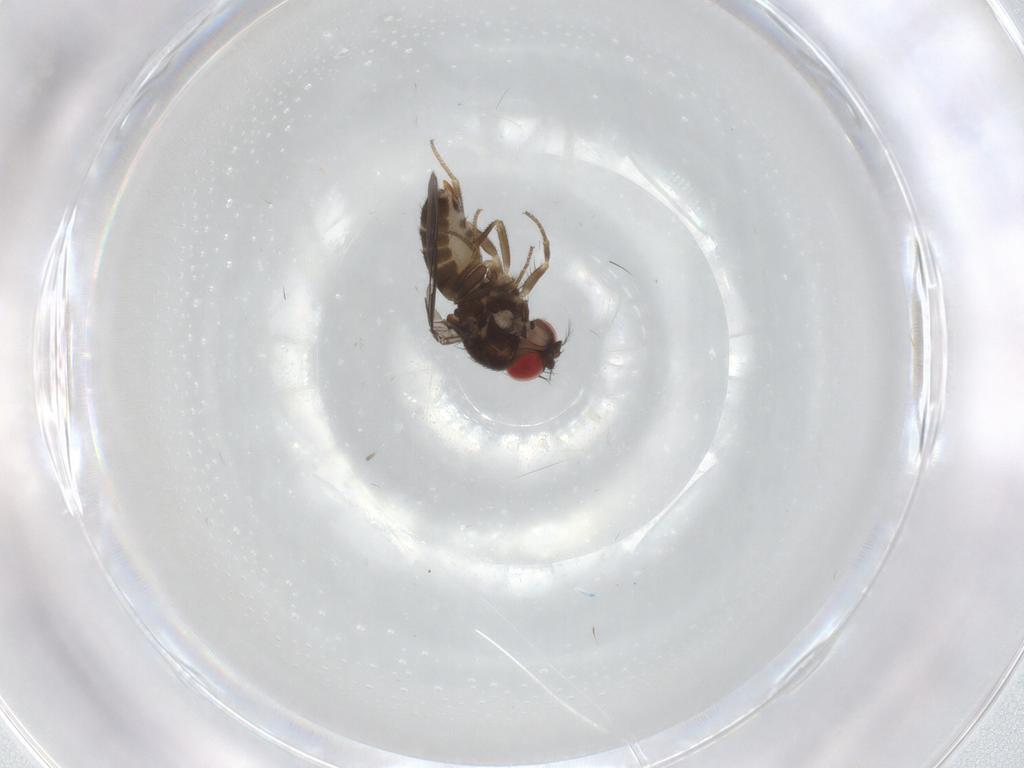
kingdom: Animalia
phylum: Arthropoda
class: Insecta
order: Diptera
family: Drosophilidae
